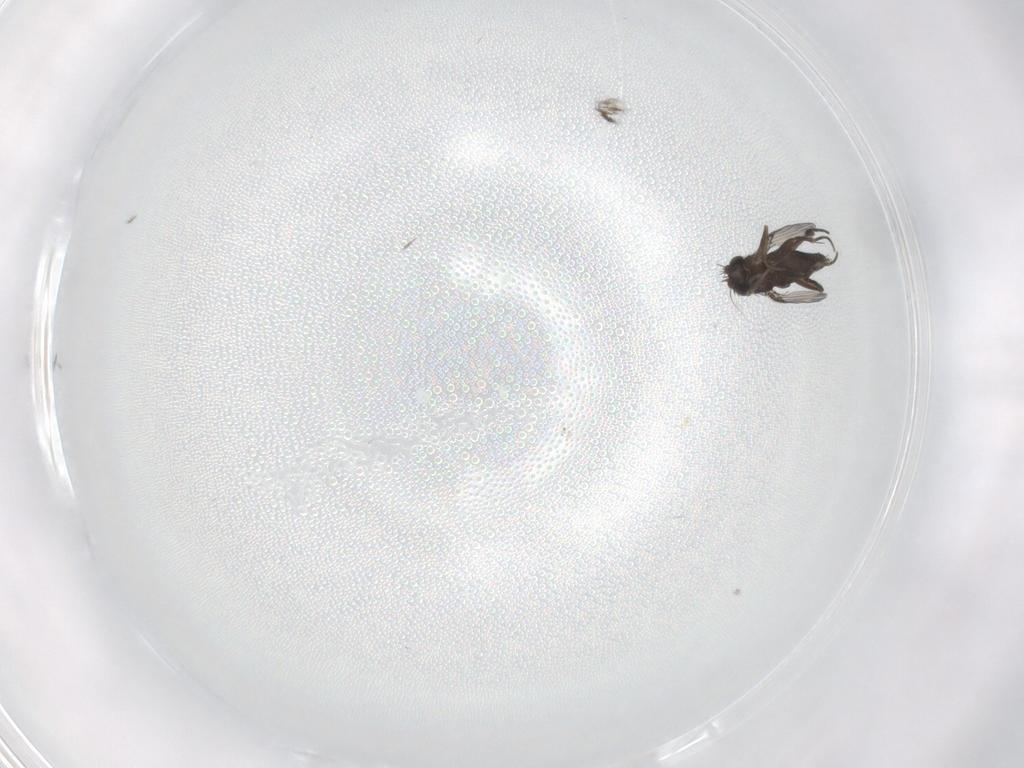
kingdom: Animalia
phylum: Arthropoda
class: Insecta
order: Diptera
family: Phoridae
